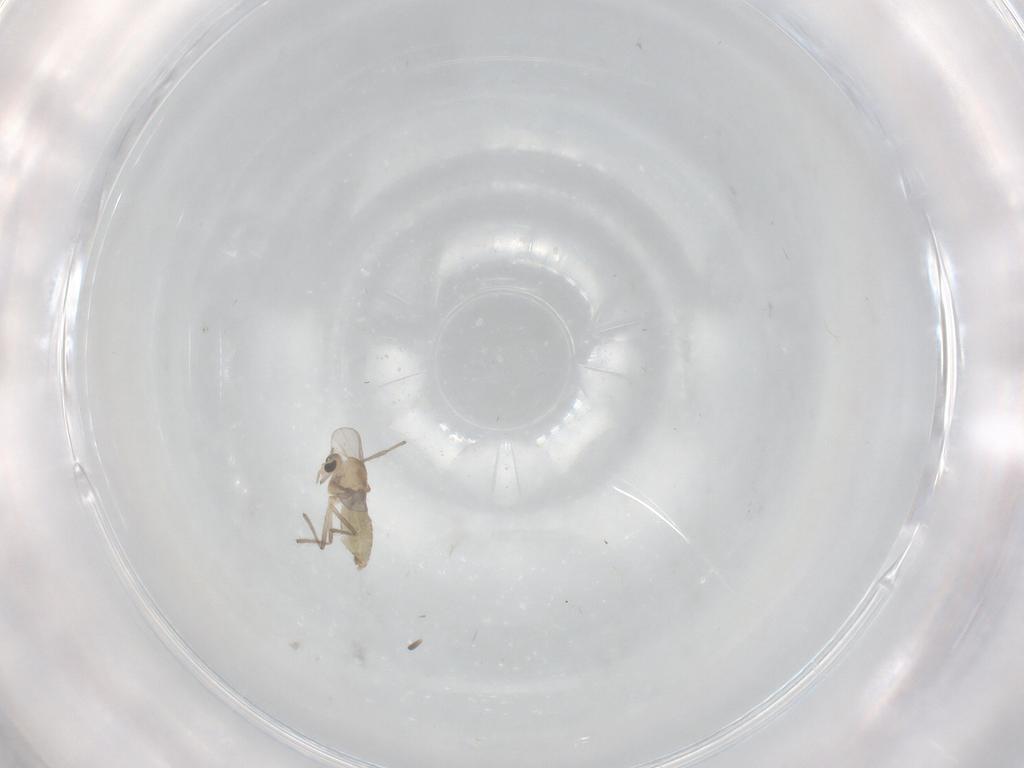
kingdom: Animalia
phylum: Arthropoda
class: Insecta
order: Diptera
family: Chironomidae
